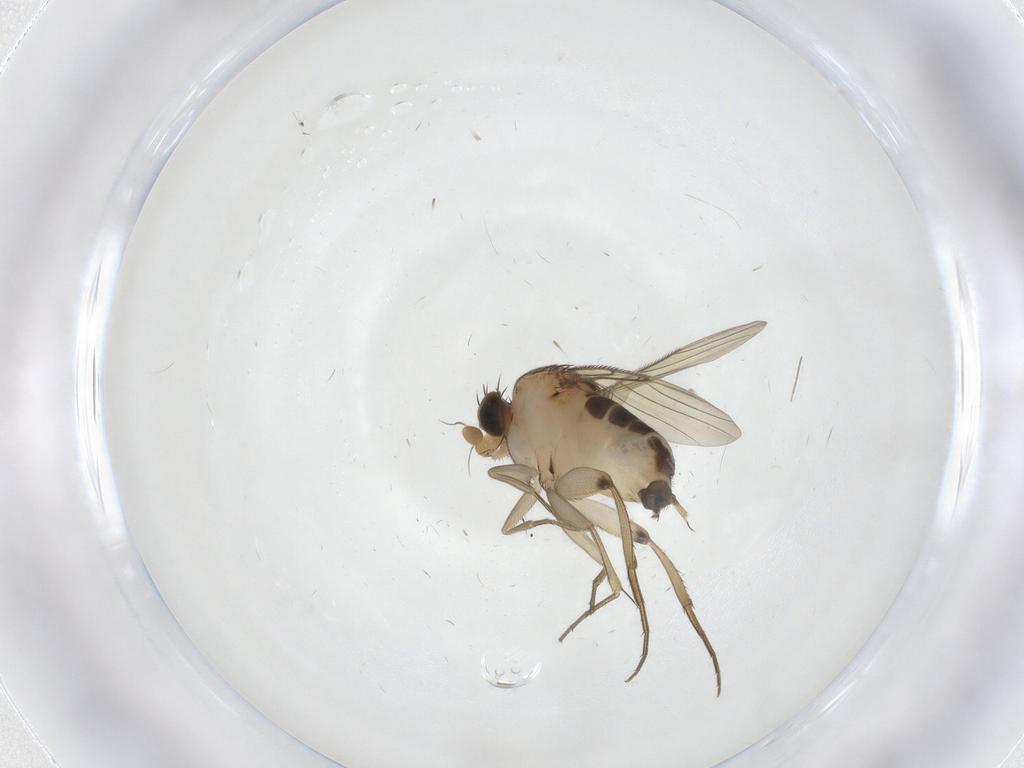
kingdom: Animalia
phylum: Arthropoda
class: Insecta
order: Diptera
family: Phoridae
